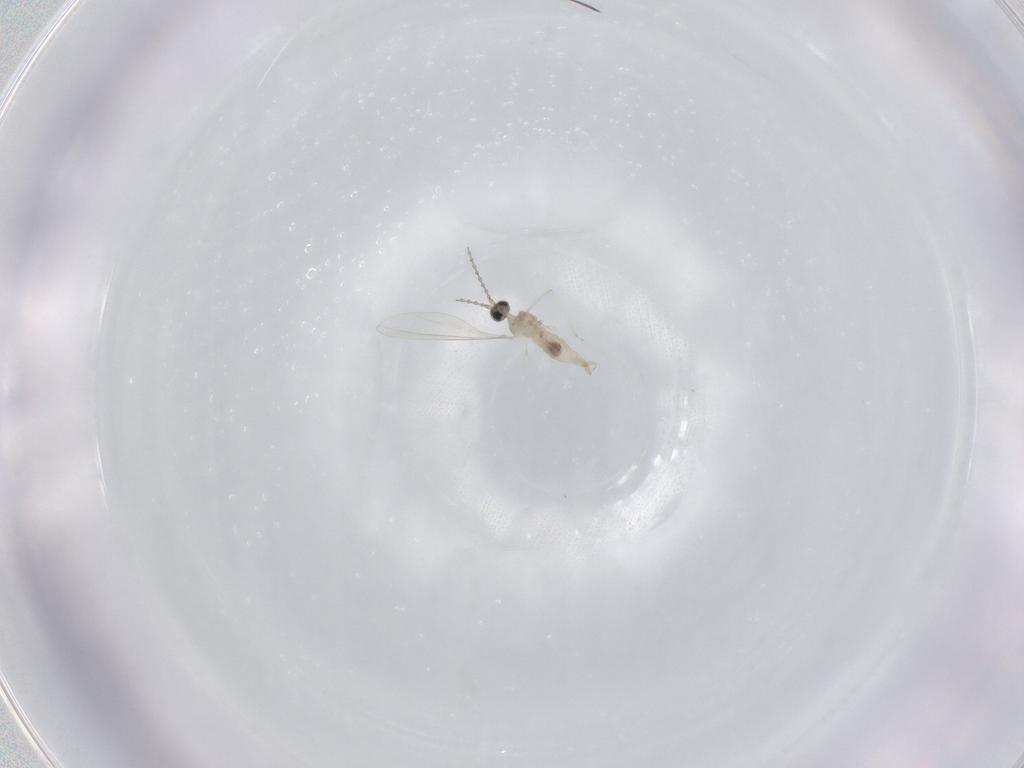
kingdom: Animalia
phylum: Arthropoda
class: Insecta
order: Diptera
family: Cecidomyiidae
